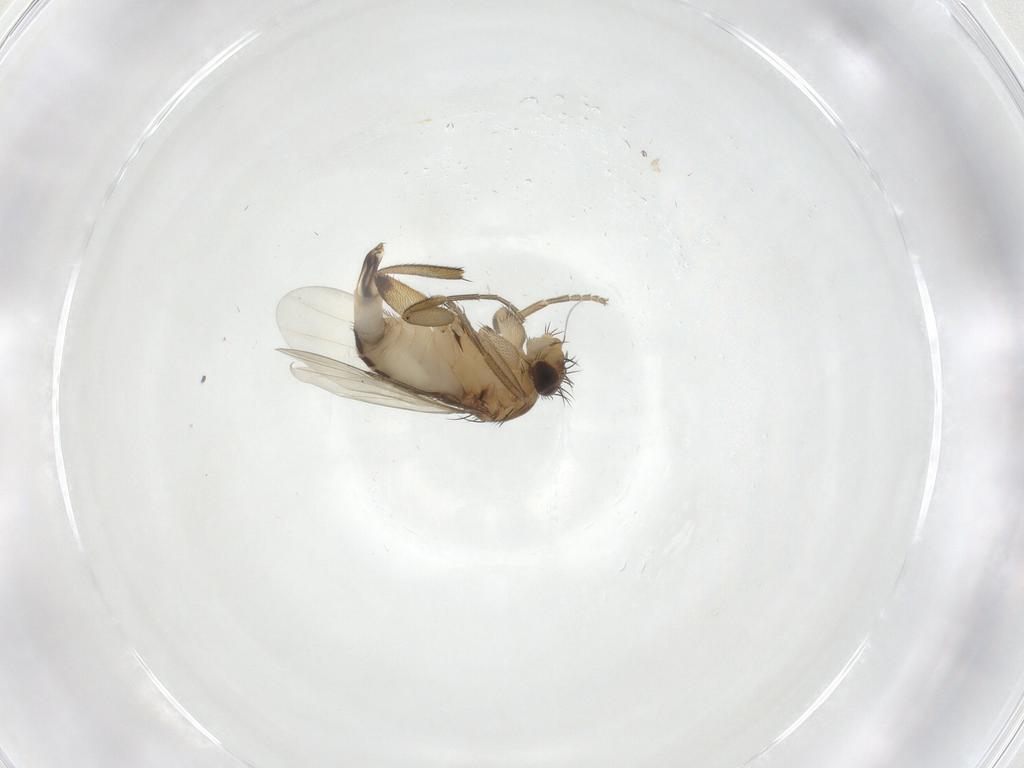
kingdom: Animalia
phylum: Arthropoda
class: Insecta
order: Diptera
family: Phoridae
